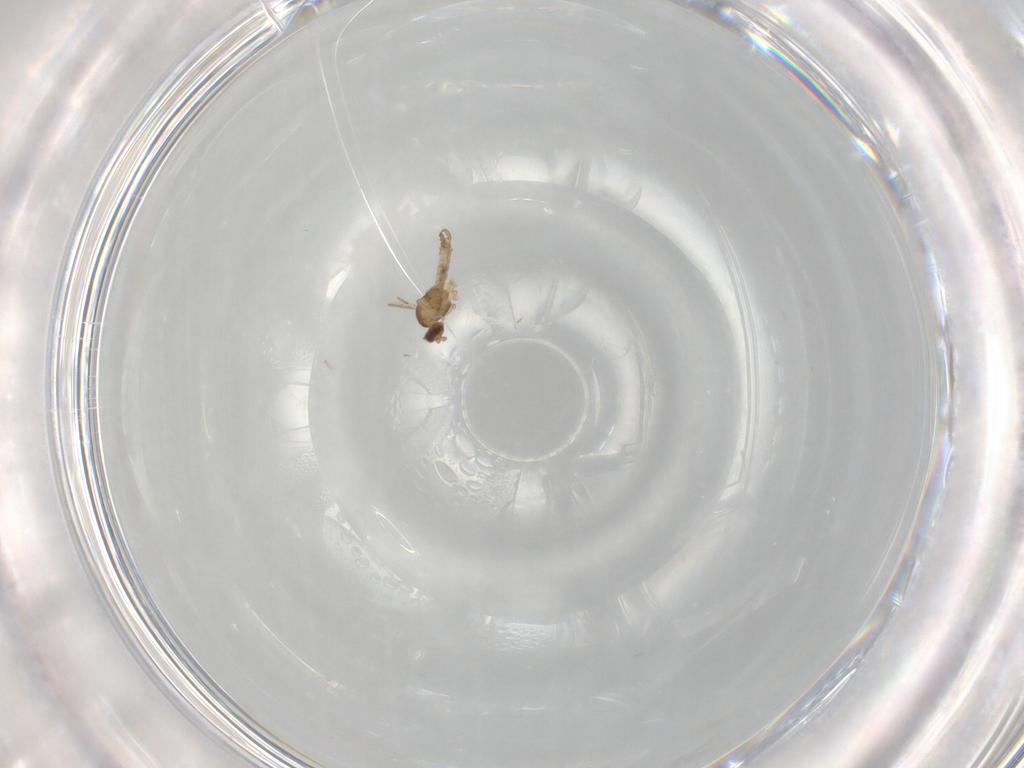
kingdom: Animalia
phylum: Arthropoda
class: Insecta
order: Diptera
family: Cecidomyiidae
